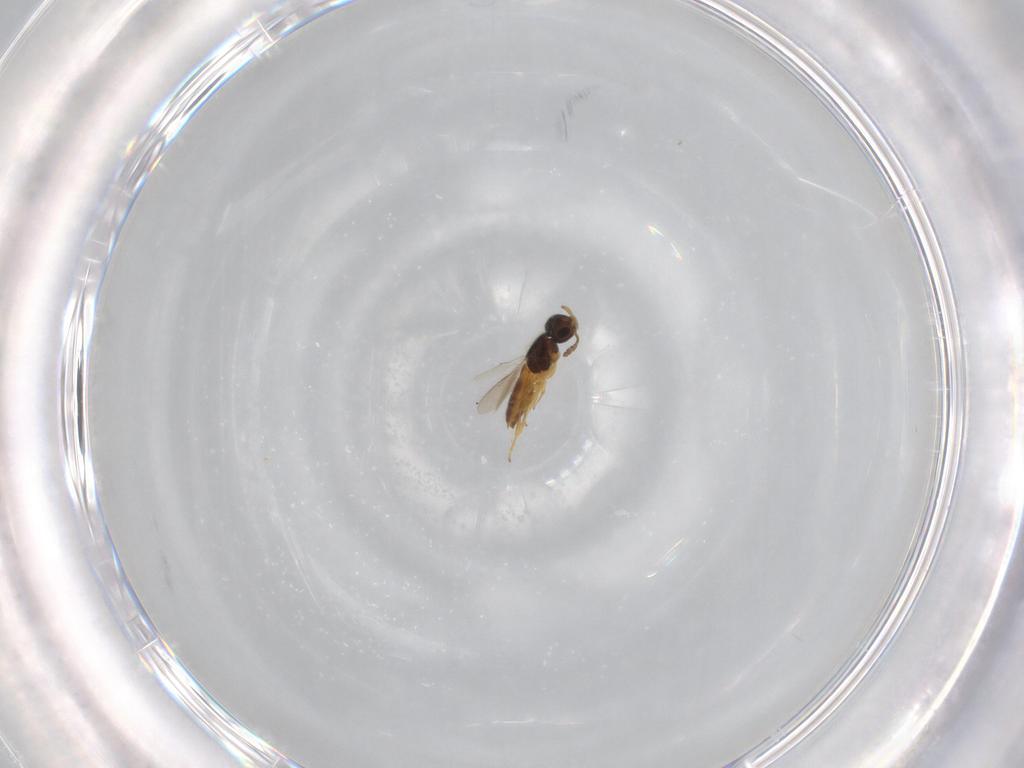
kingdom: Animalia
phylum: Arthropoda
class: Insecta
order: Hymenoptera
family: Scelionidae
